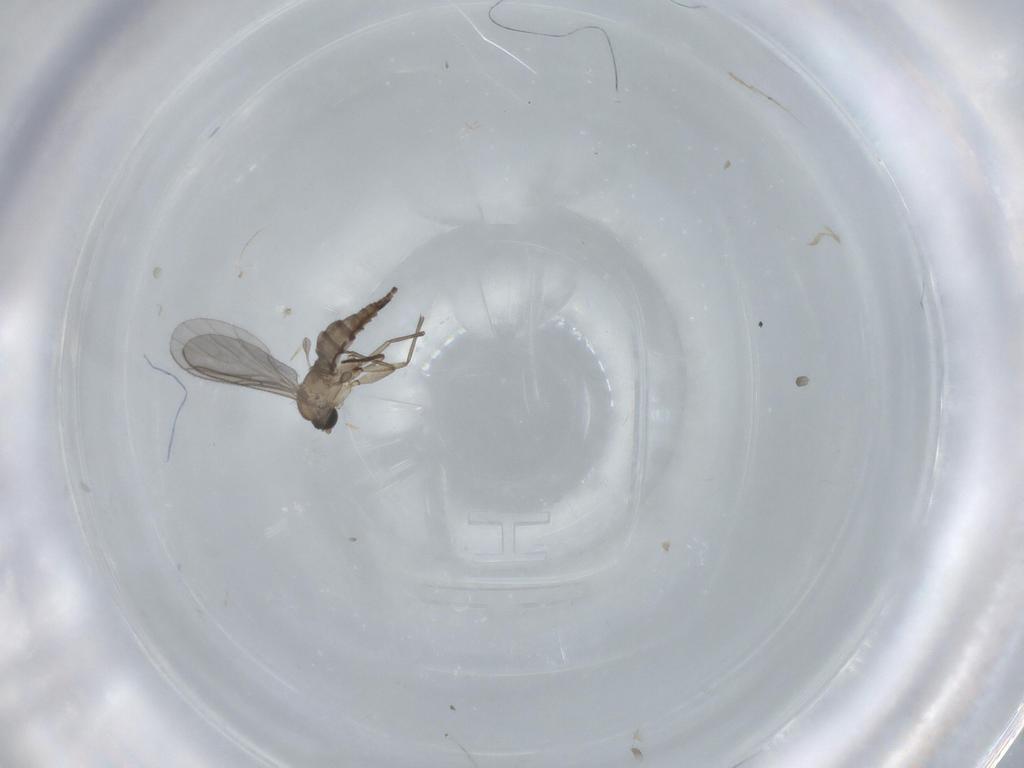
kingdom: Animalia
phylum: Arthropoda
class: Insecta
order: Diptera
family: Sciaridae
